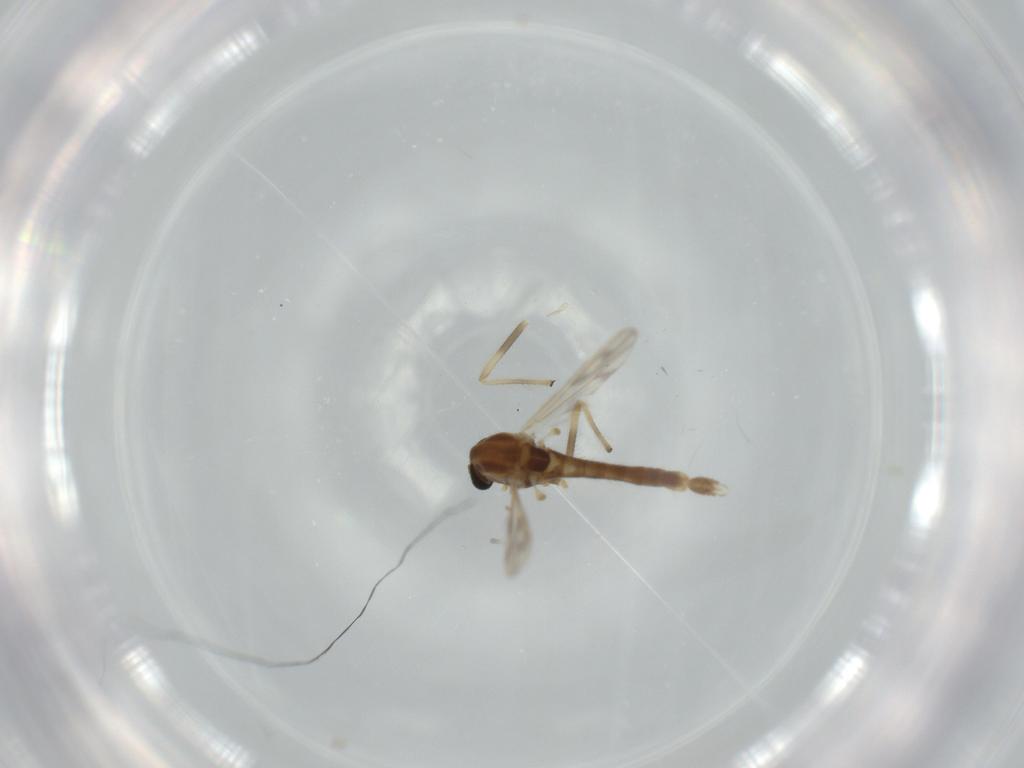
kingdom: Animalia
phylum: Arthropoda
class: Insecta
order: Diptera
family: Chironomidae
